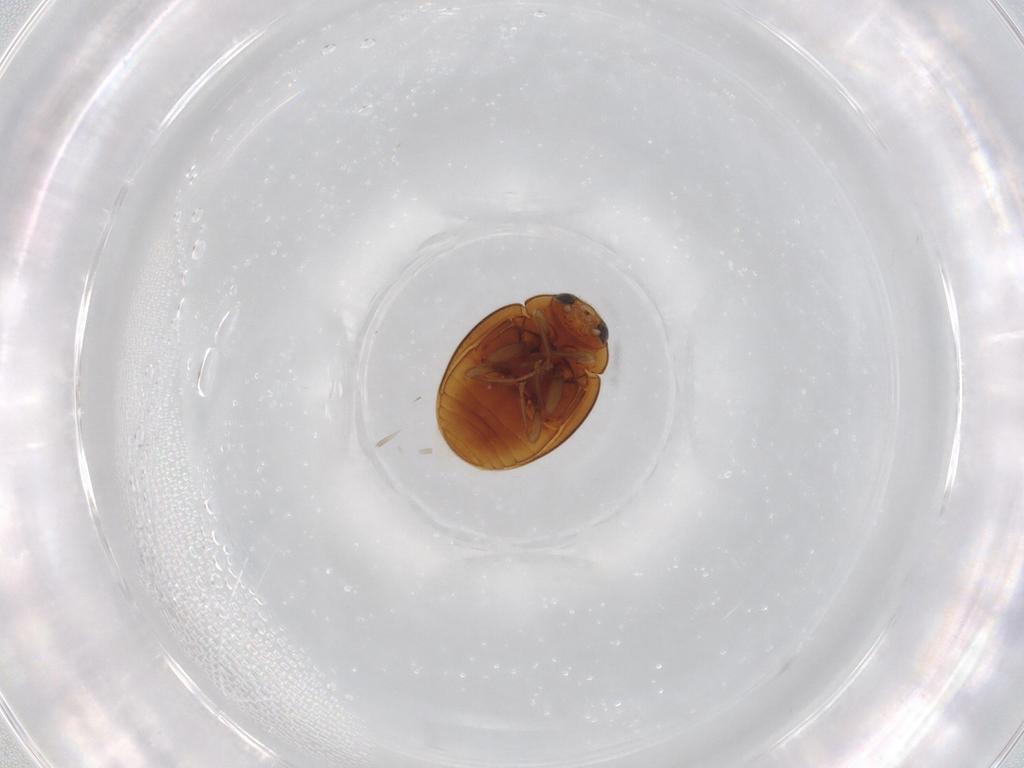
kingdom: Animalia
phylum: Arthropoda
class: Insecta
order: Coleoptera
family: Coccinellidae
